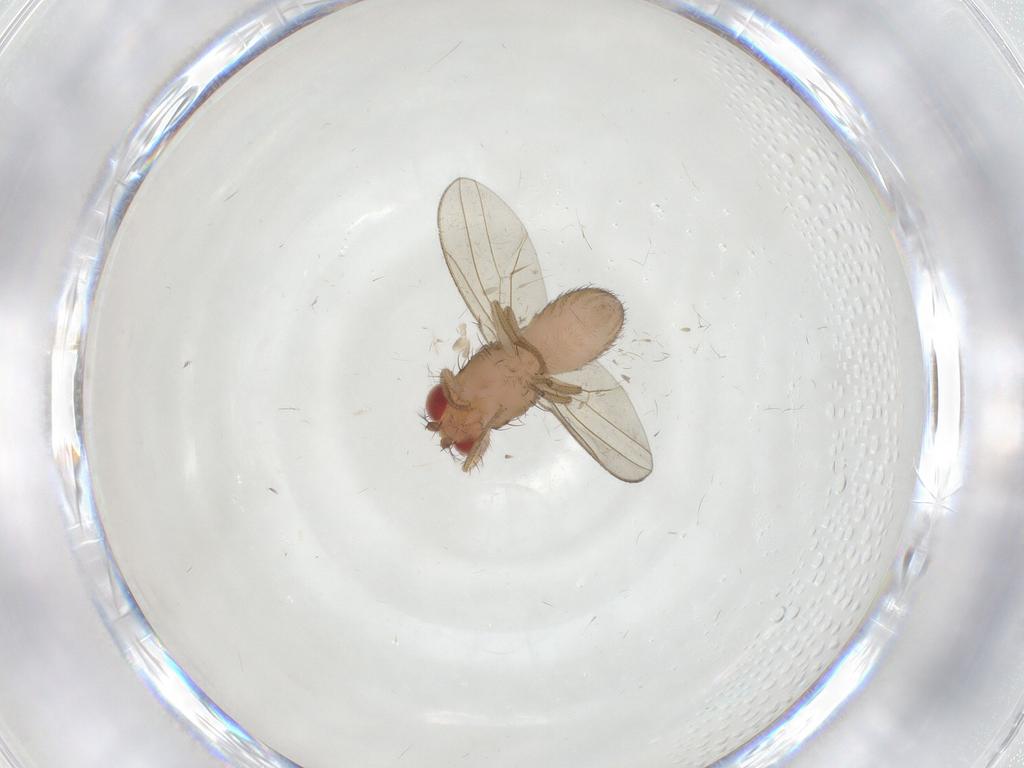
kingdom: Animalia
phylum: Arthropoda
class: Insecta
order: Diptera
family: Drosophilidae
